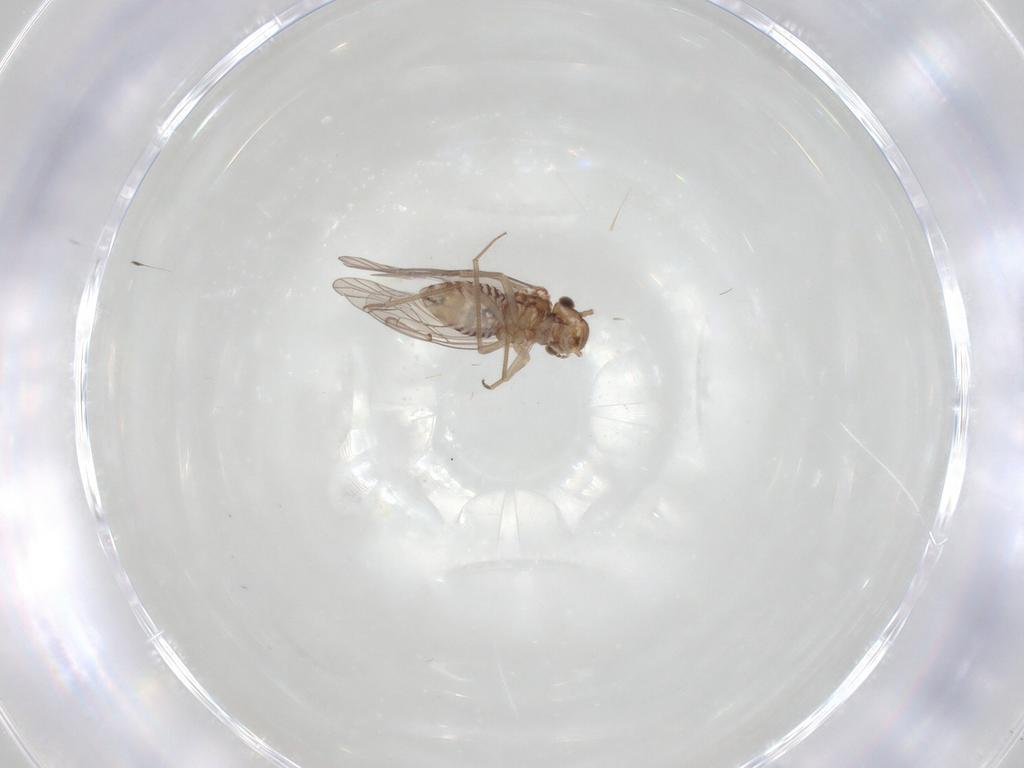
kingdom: Animalia
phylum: Arthropoda
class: Insecta
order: Psocodea
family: Lachesillidae
